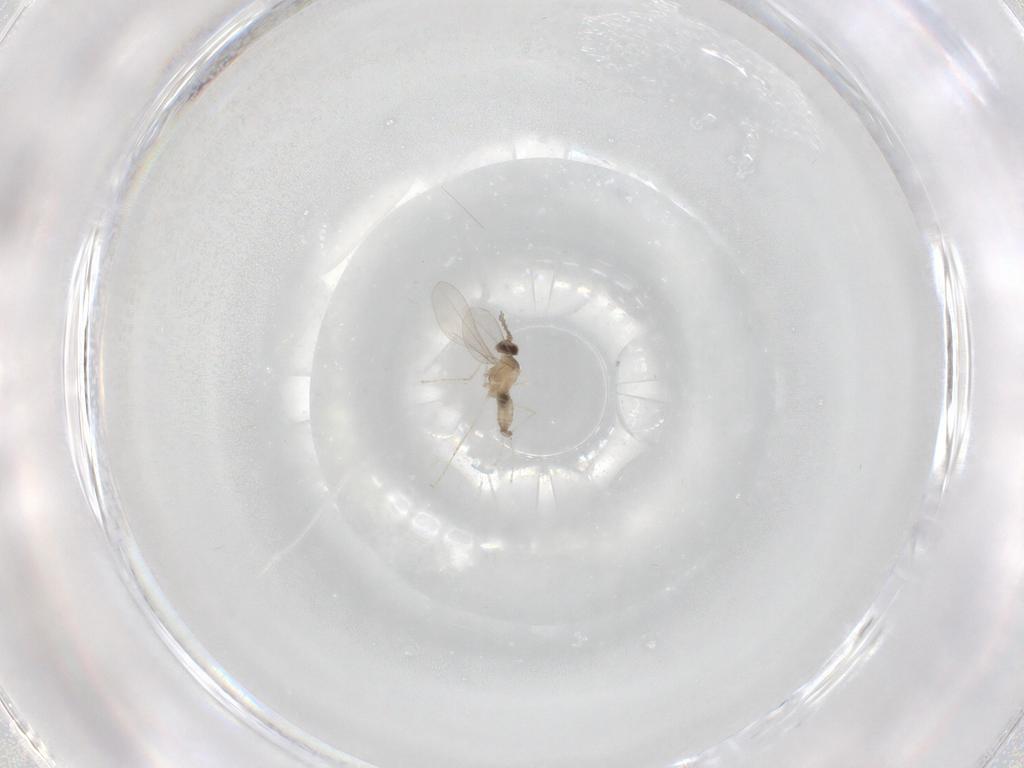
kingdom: Animalia
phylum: Arthropoda
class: Insecta
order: Diptera
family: Cecidomyiidae
